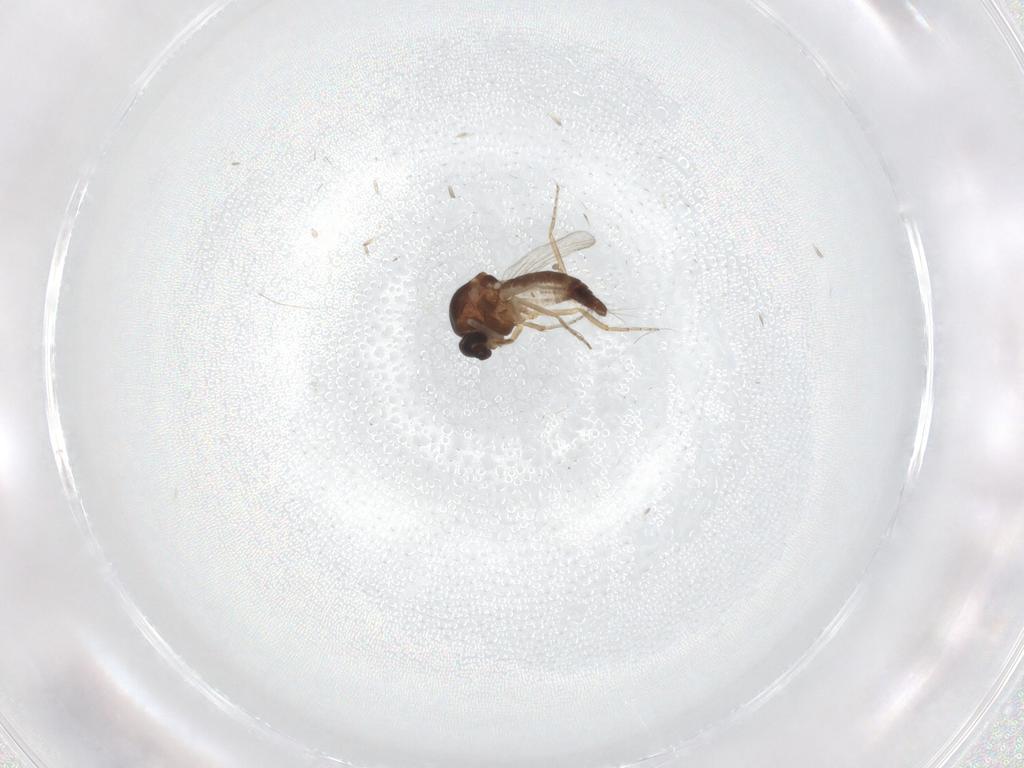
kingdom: Animalia
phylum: Arthropoda
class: Insecta
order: Diptera
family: Ceratopogonidae
